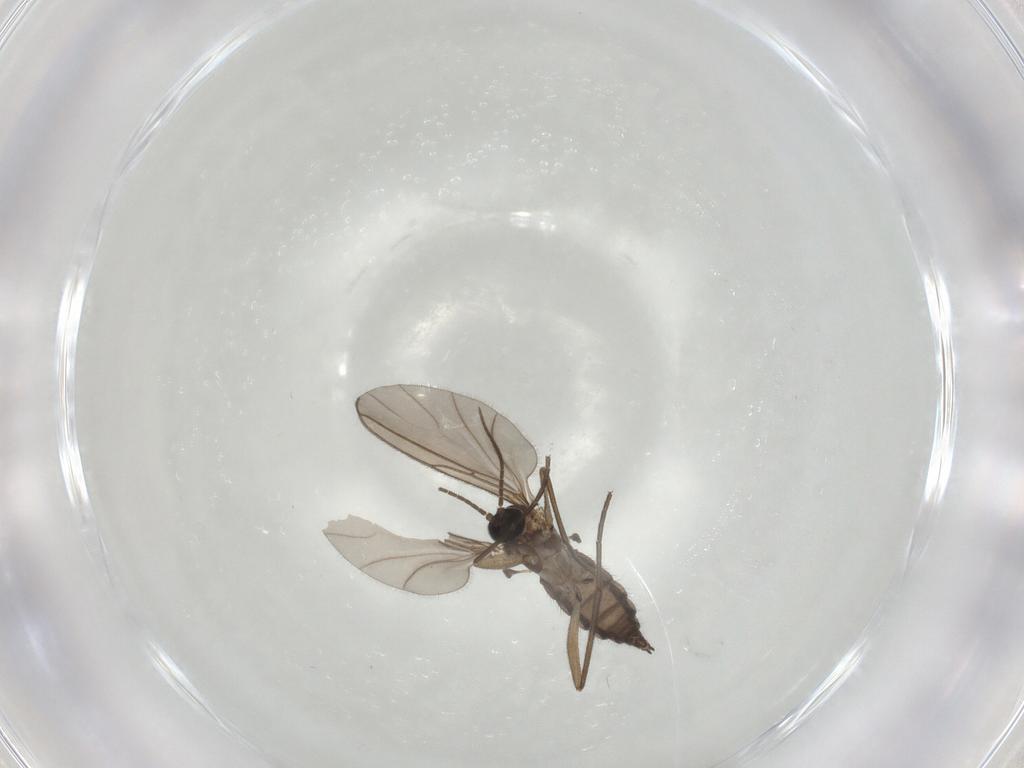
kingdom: Animalia
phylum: Arthropoda
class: Insecta
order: Diptera
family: Sciaridae
